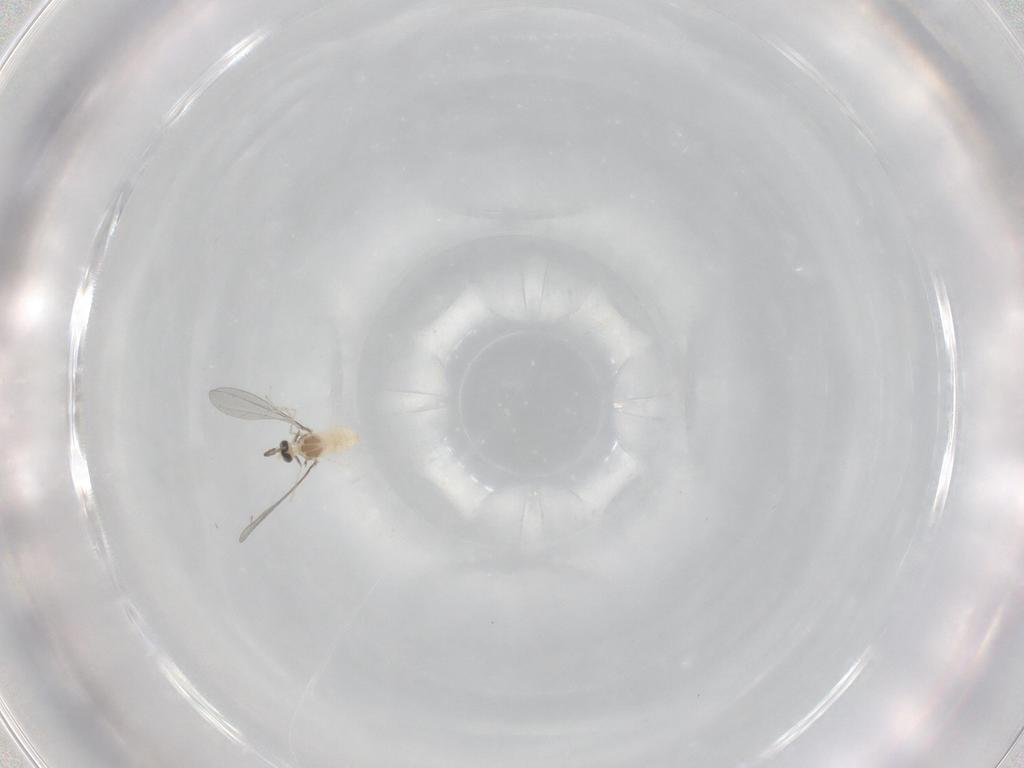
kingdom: Animalia
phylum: Arthropoda
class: Insecta
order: Diptera
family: Cecidomyiidae
